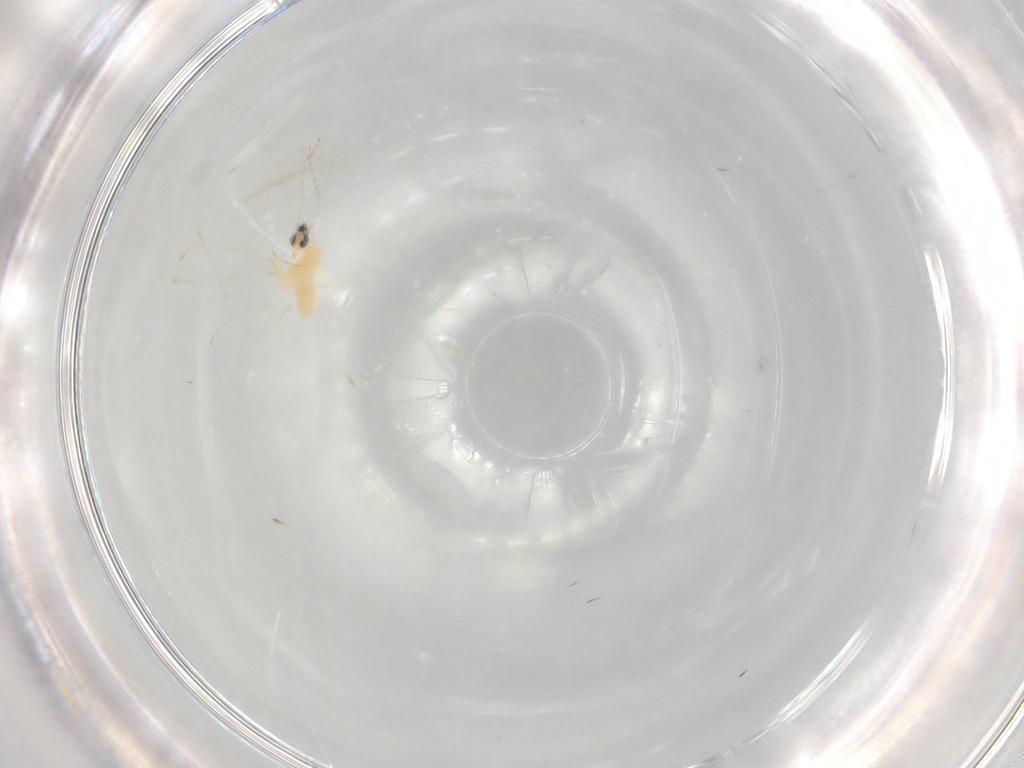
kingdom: Animalia
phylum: Arthropoda
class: Insecta
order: Diptera
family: Cecidomyiidae
